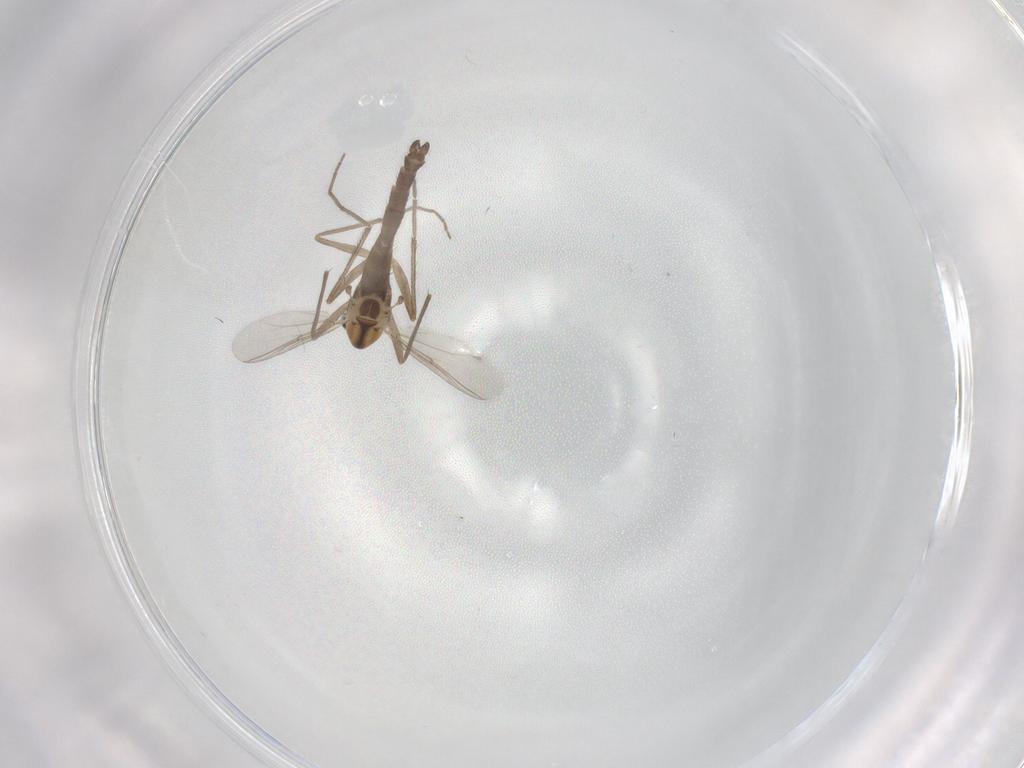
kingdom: Animalia
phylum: Arthropoda
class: Insecta
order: Diptera
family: Chironomidae
